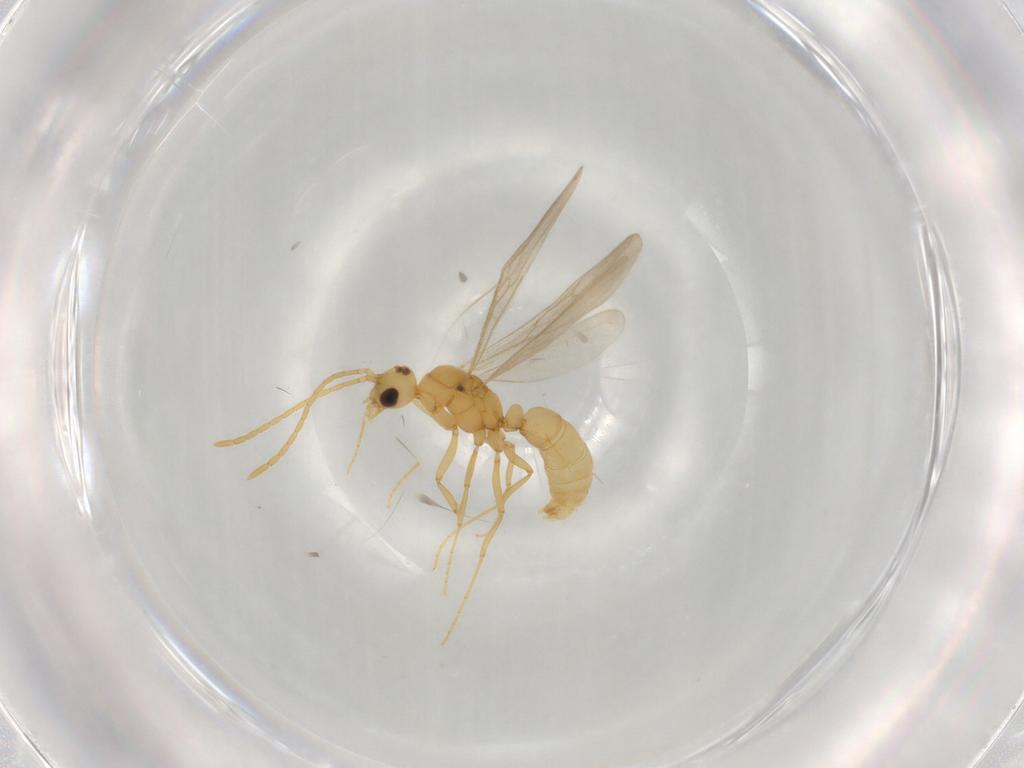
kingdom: Animalia
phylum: Arthropoda
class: Insecta
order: Hymenoptera
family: Formicidae
